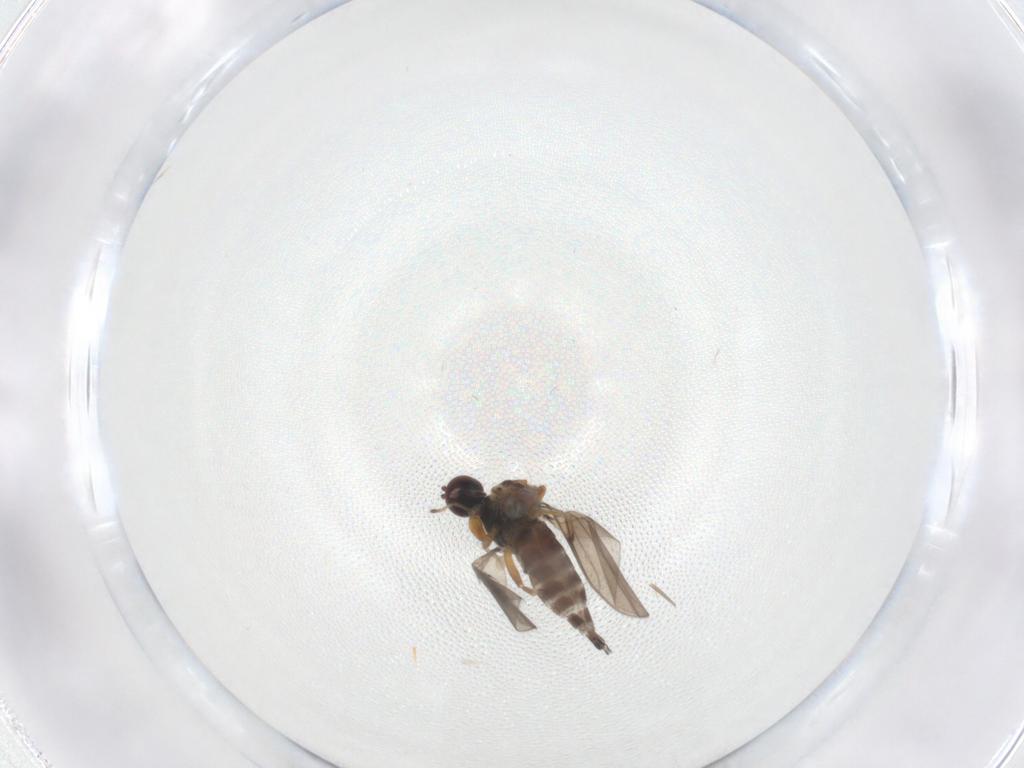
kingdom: Animalia
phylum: Arthropoda
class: Insecta
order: Diptera
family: Hybotidae
